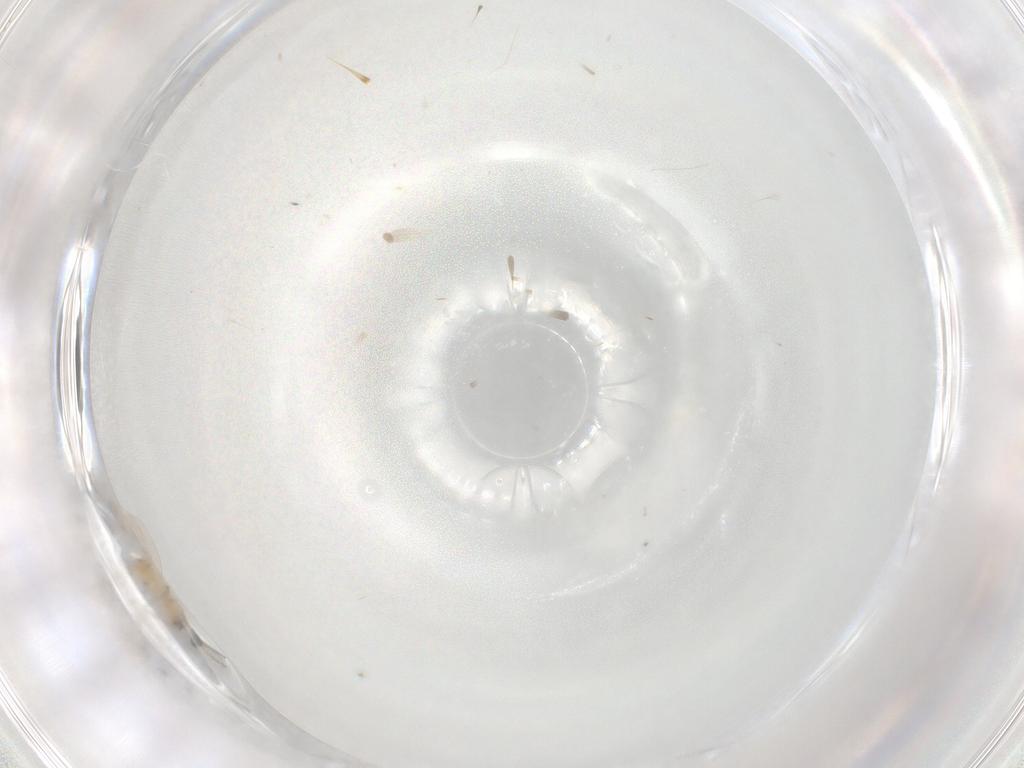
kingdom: Animalia
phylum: Arthropoda
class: Insecta
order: Diptera
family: Cecidomyiidae
